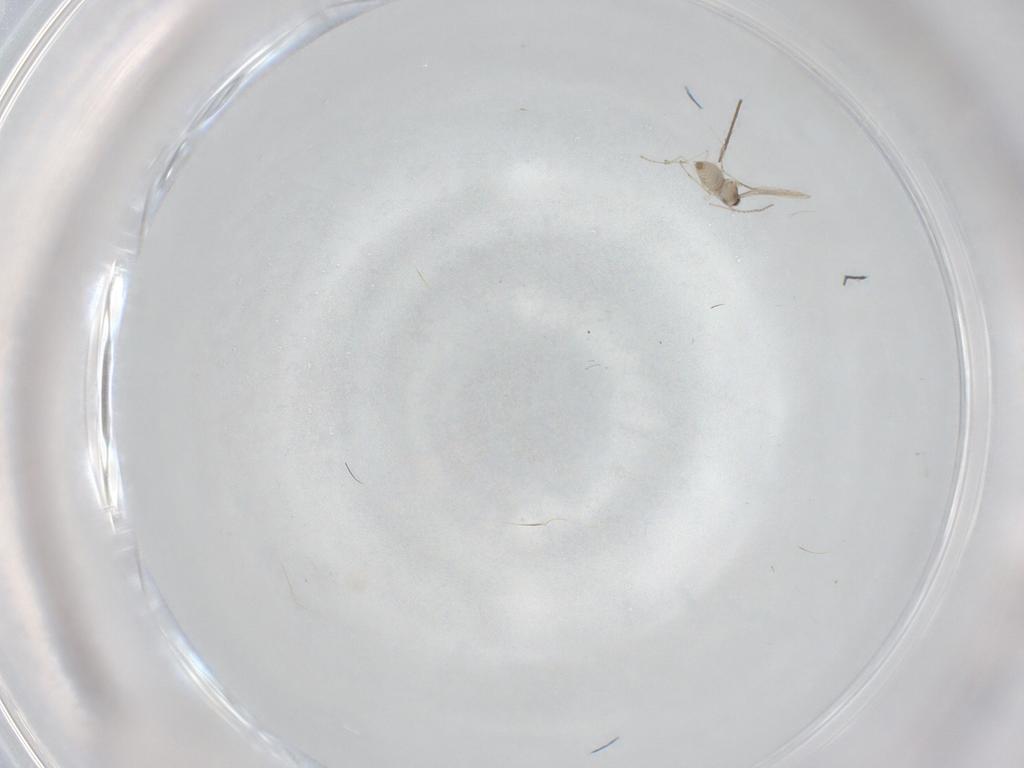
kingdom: Animalia
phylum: Arthropoda
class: Insecta
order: Diptera
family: Cecidomyiidae
